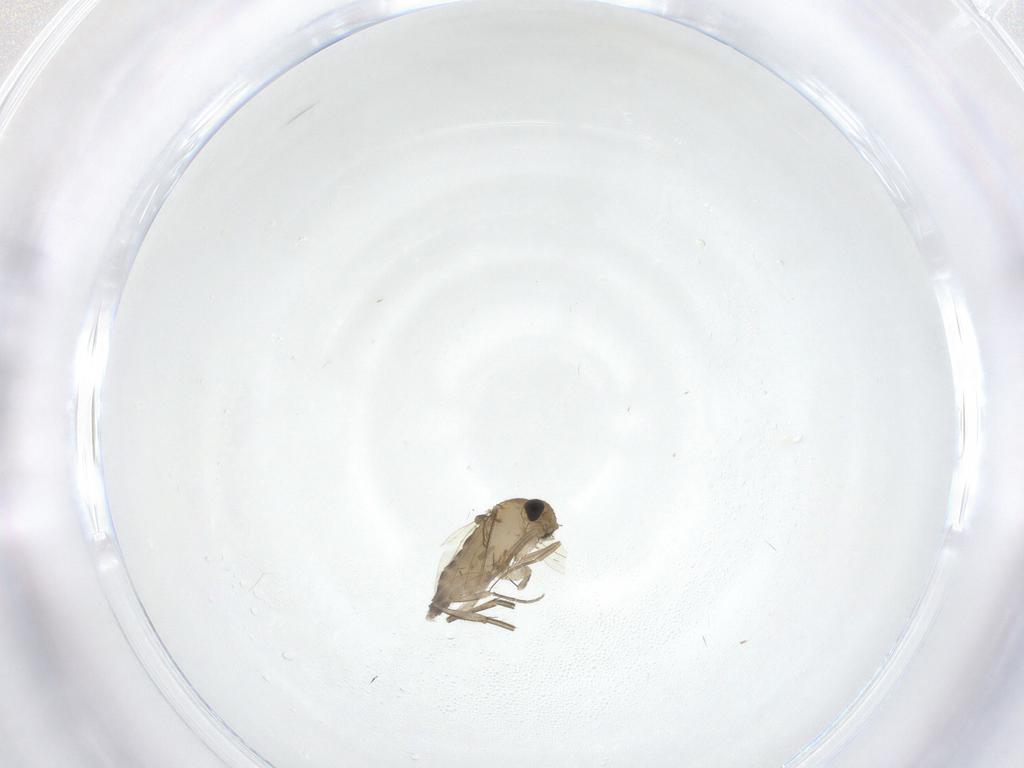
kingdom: Animalia
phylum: Arthropoda
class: Insecta
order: Diptera
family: Phoridae
